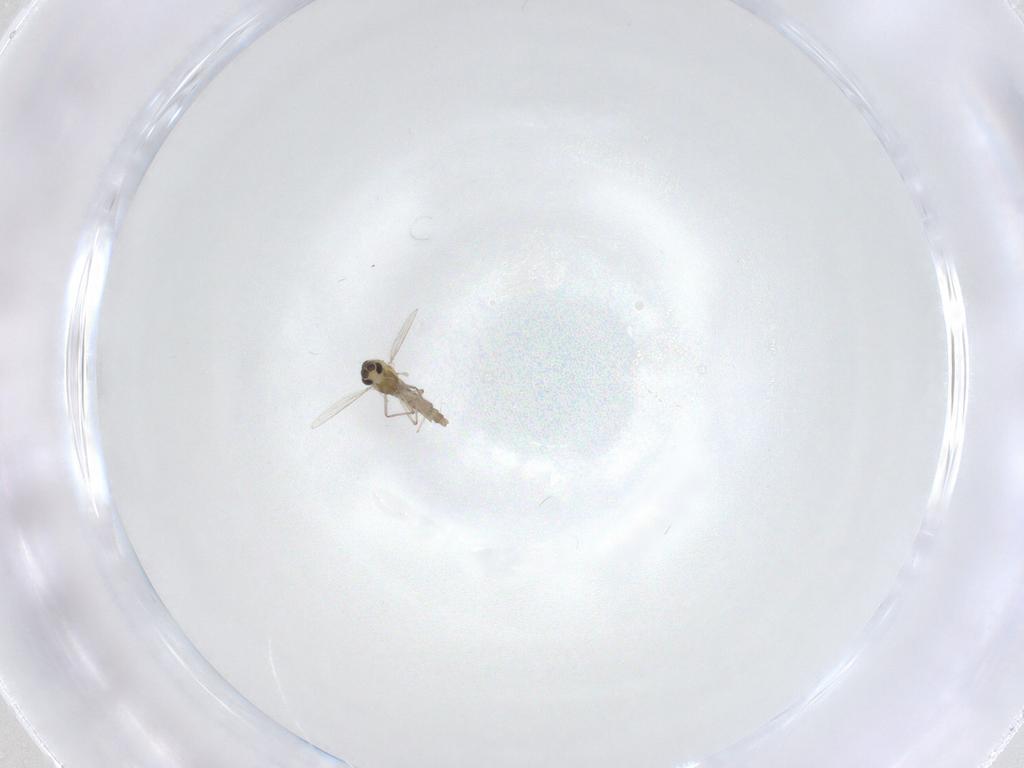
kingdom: Animalia
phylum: Arthropoda
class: Insecta
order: Diptera
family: Chironomidae
